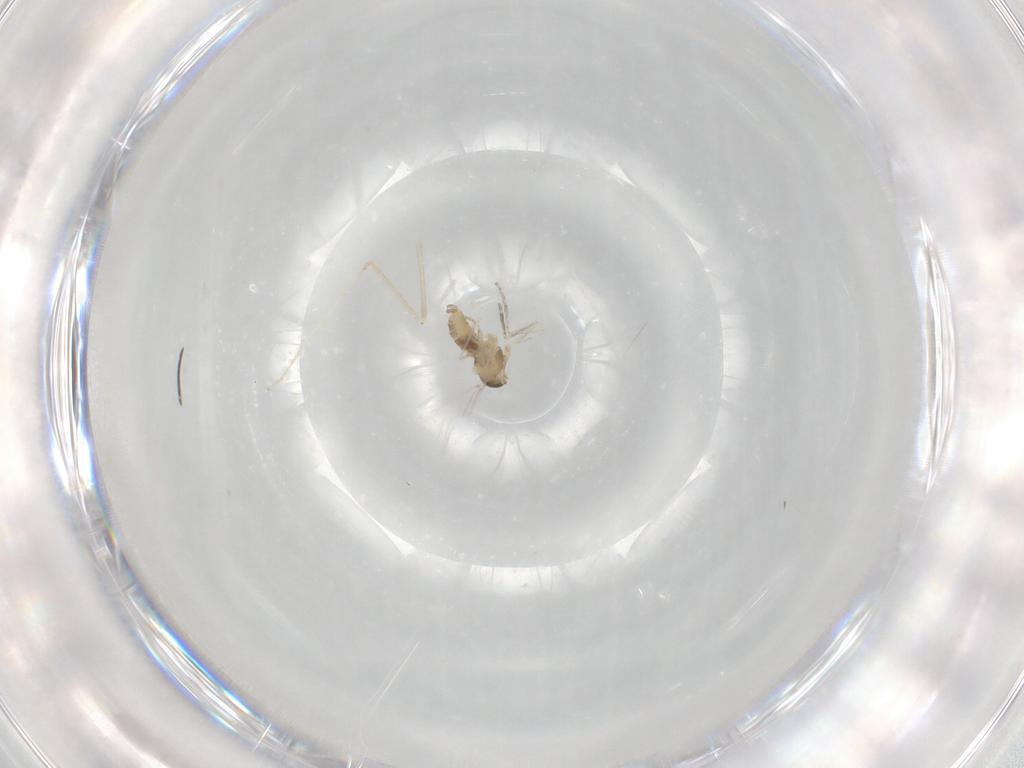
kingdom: Animalia
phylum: Arthropoda
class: Insecta
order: Diptera
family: Cecidomyiidae
